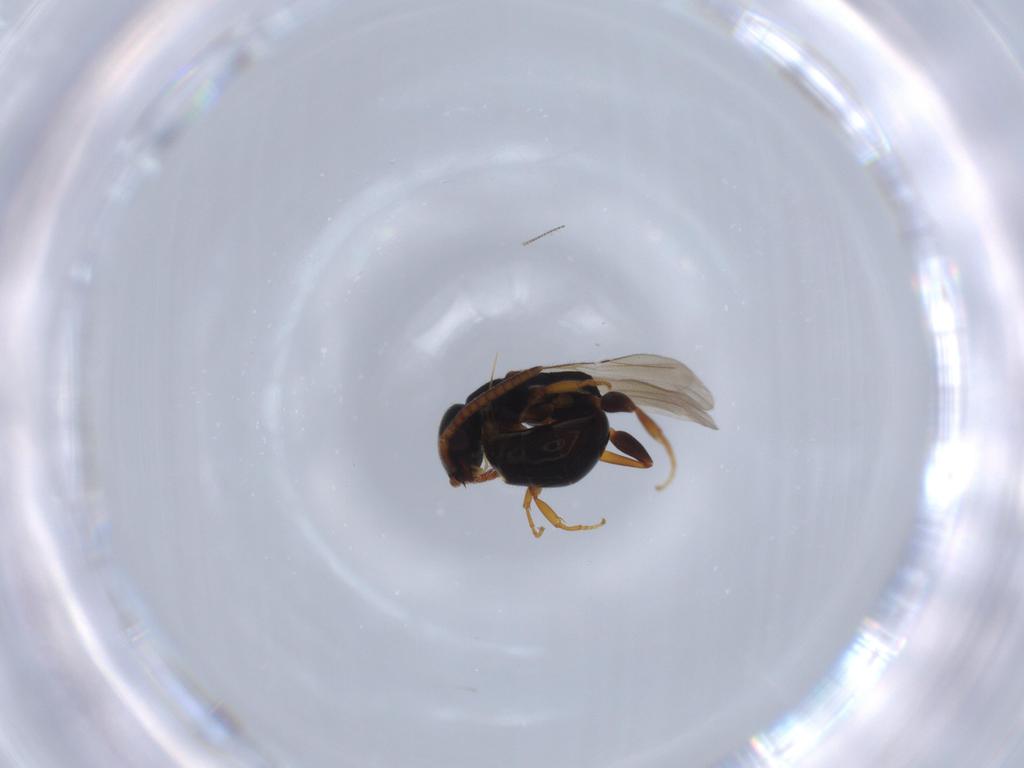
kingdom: Animalia
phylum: Arthropoda
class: Insecta
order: Hymenoptera
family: Bethylidae
